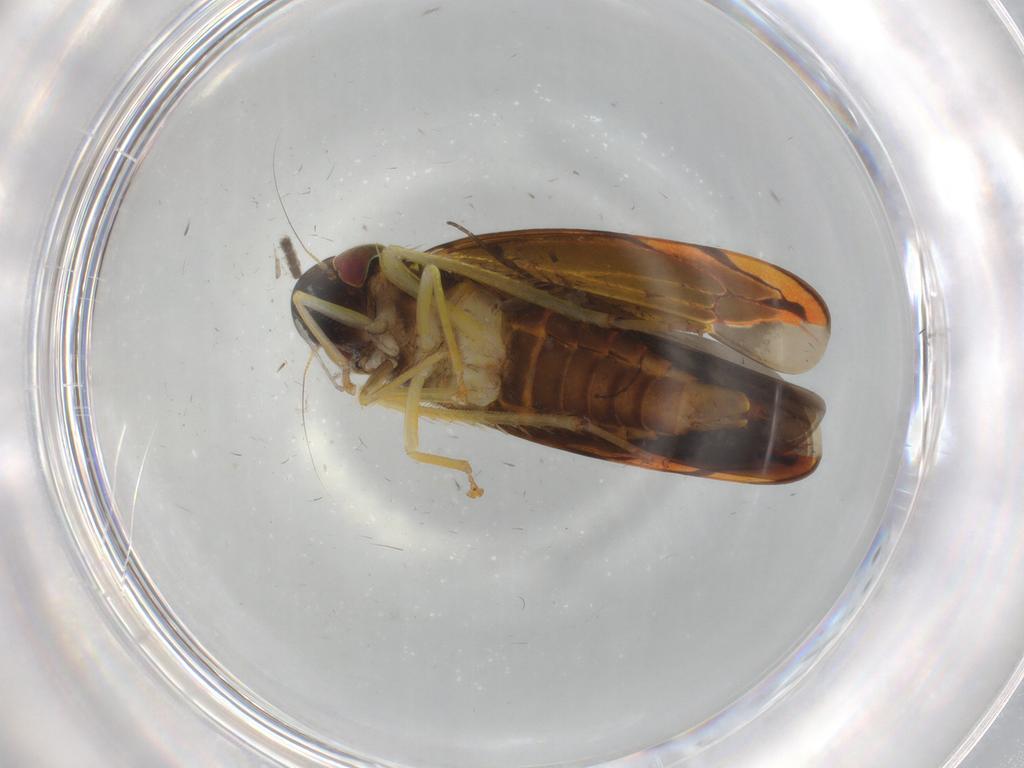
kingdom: Animalia
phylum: Arthropoda
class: Insecta
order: Hemiptera
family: Cicadellidae
